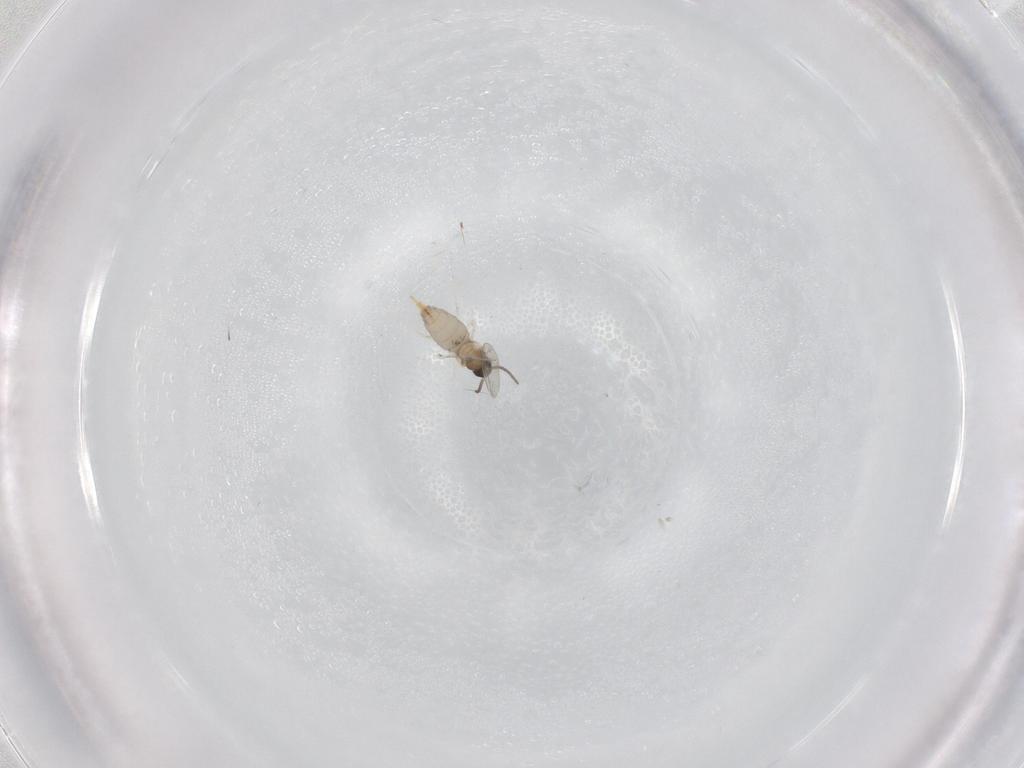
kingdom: Animalia
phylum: Arthropoda
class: Insecta
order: Diptera
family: Cecidomyiidae
